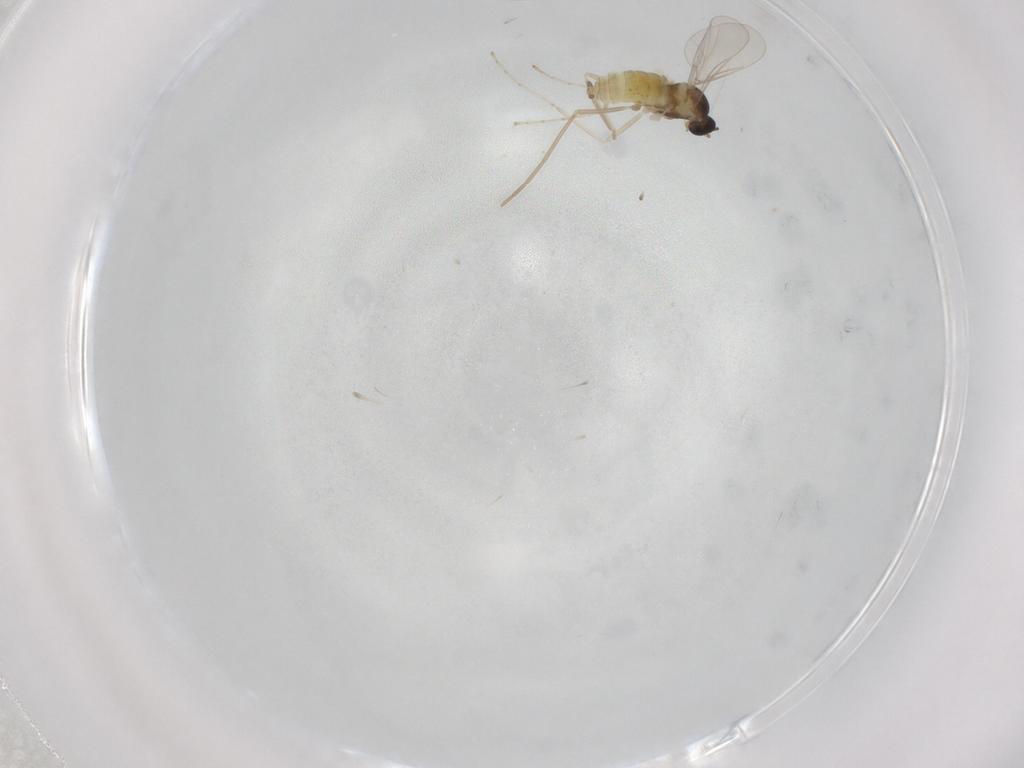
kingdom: Animalia
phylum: Arthropoda
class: Insecta
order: Diptera
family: Cecidomyiidae
